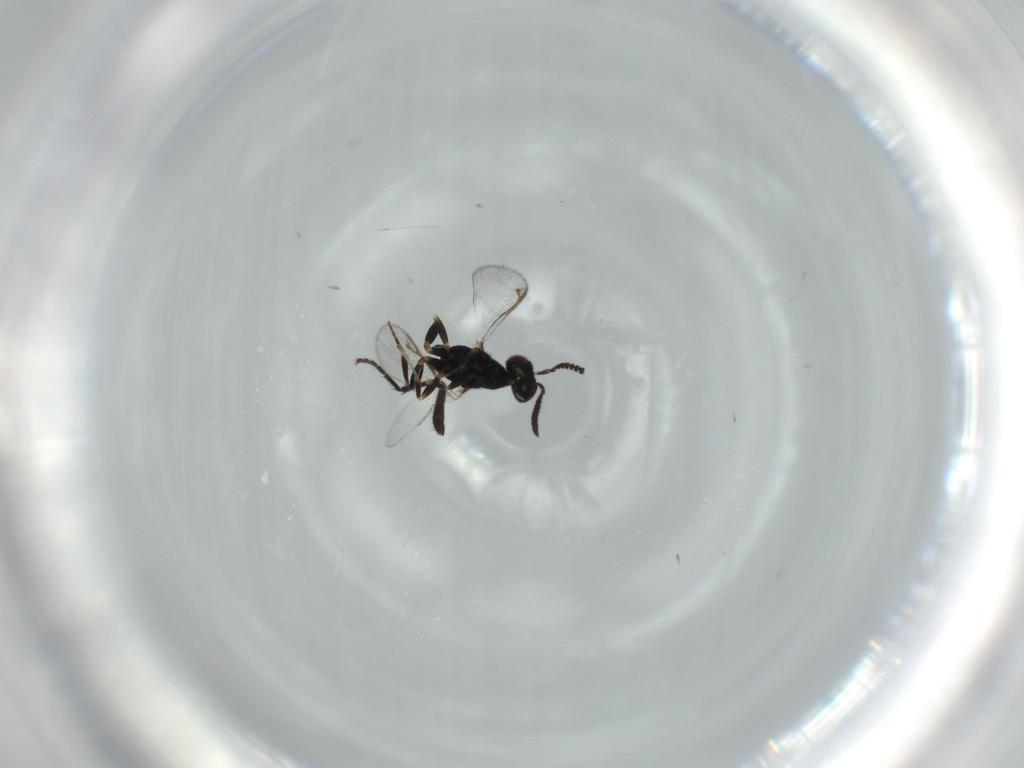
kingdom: Animalia
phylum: Arthropoda
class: Insecta
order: Hymenoptera
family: Cleonyminae
